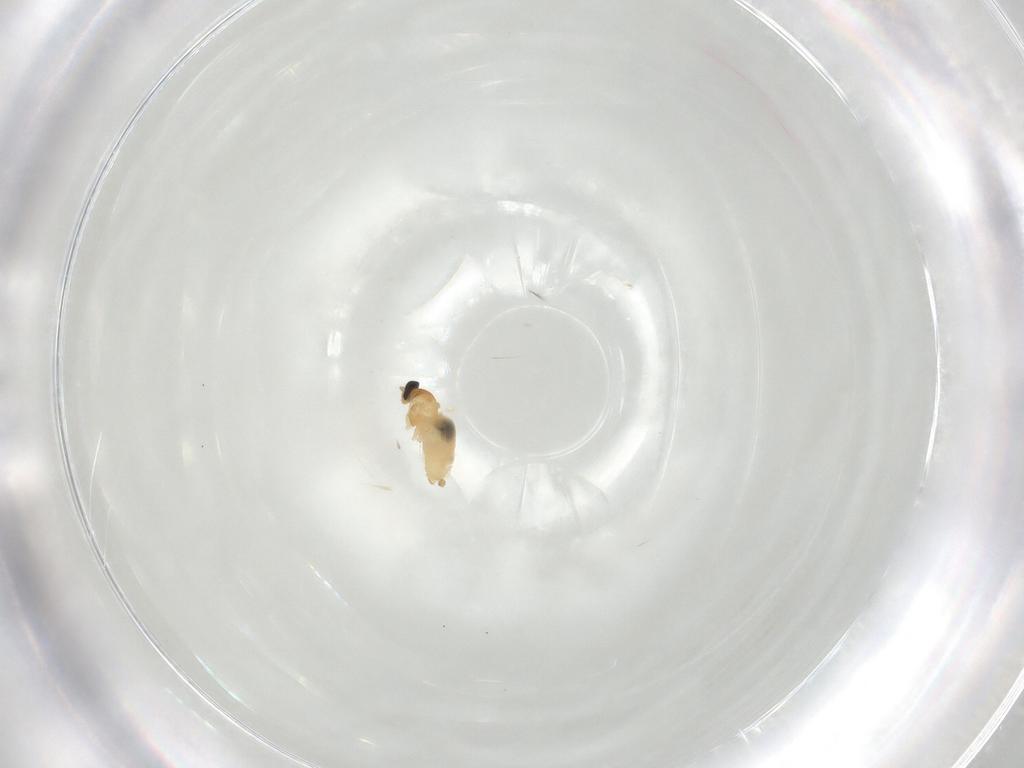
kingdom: Animalia
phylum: Arthropoda
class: Insecta
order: Diptera
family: Cecidomyiidae
